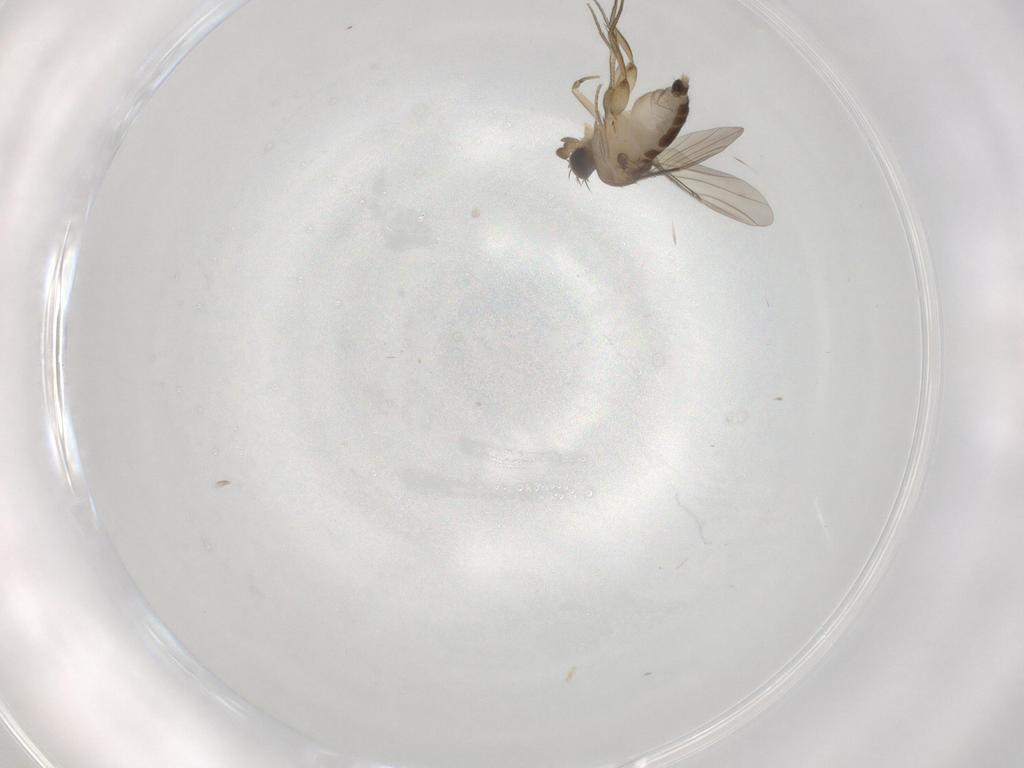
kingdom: Animalia
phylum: Arthropoda
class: Insecta
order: Diptera
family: Phoridae
